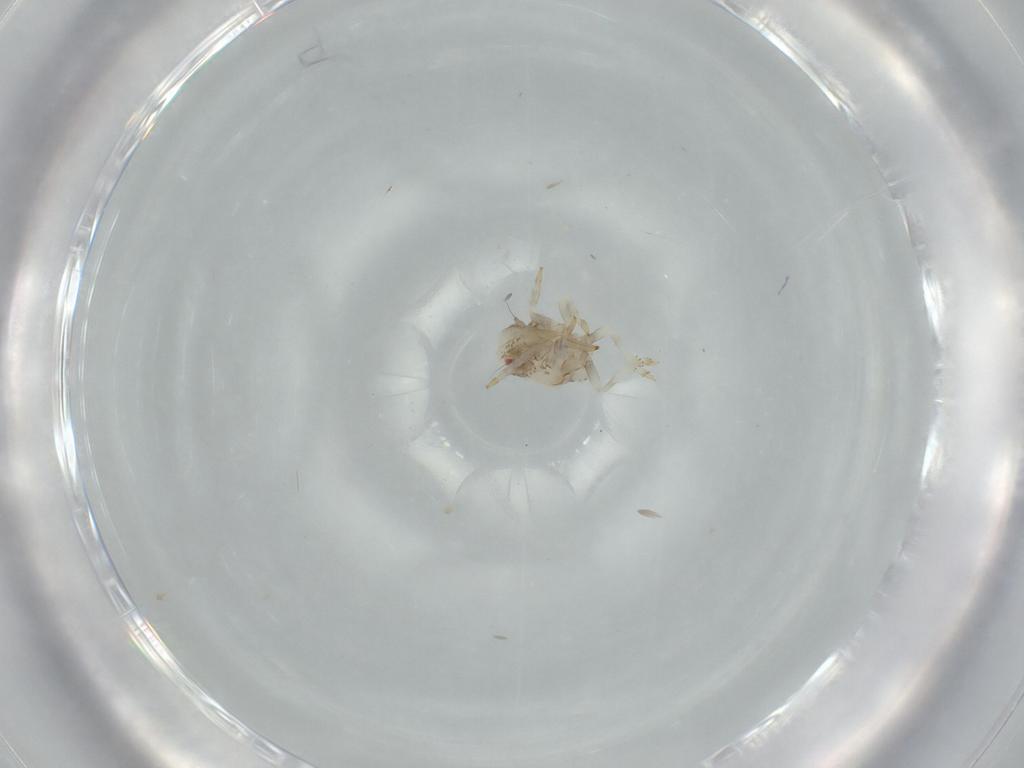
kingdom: Animalia
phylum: Arthropoda
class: Insecta
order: Hemiptera
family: Acanaloniidae
